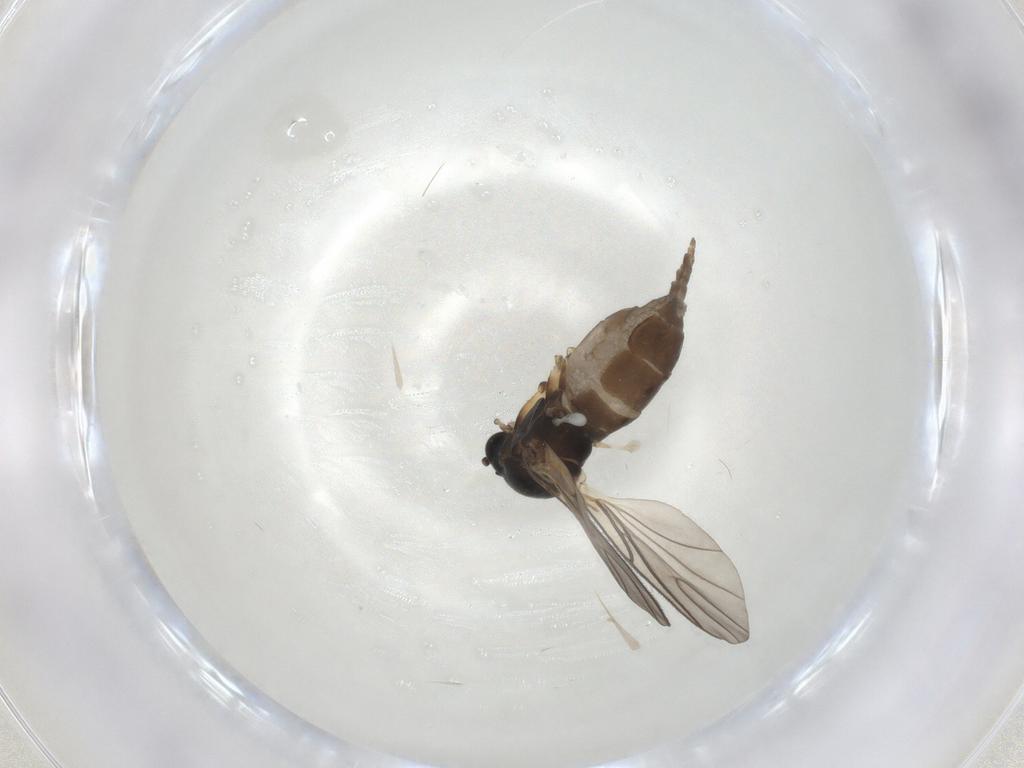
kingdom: Animalia
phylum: Arthropoda
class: Insecta
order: Diptera
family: Sciaridae
